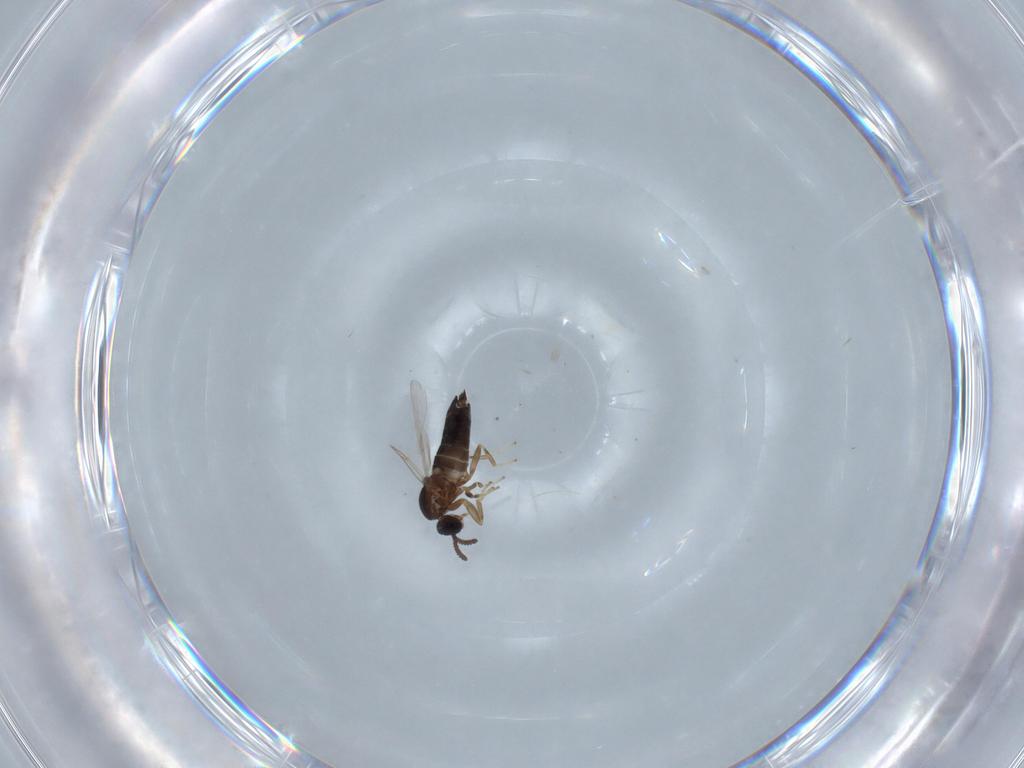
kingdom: Animalia
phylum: Arthropoda
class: Insecta
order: Diptera
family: Scatopsidae
